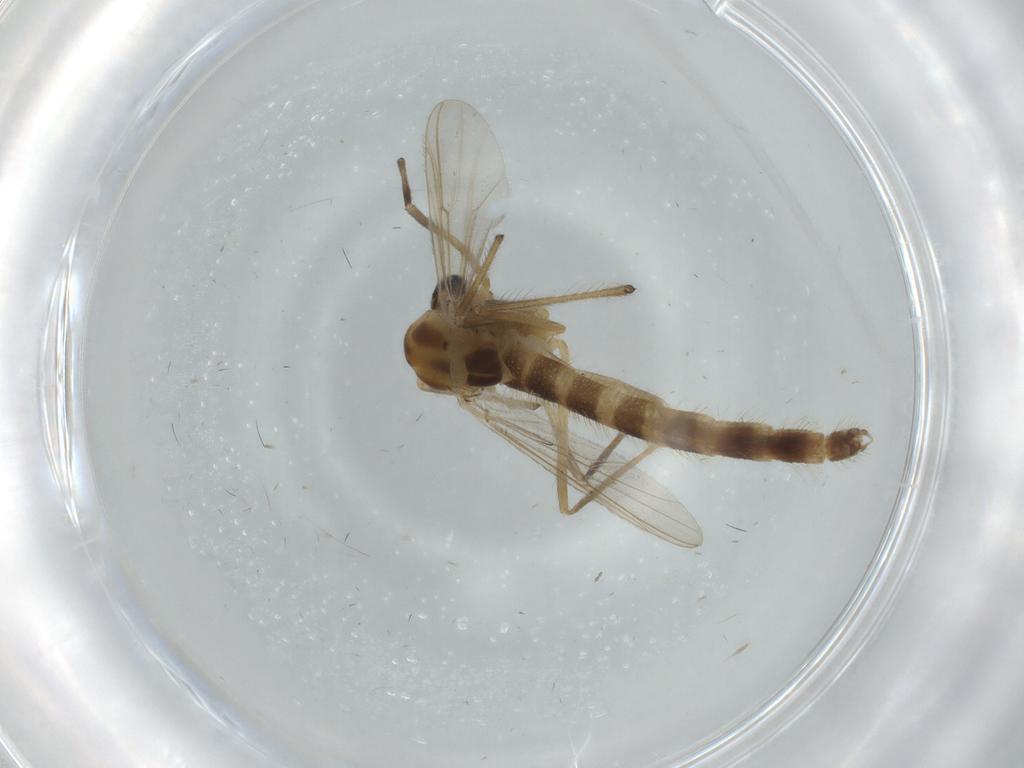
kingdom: Animalia
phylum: Arthropoda
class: Insecta
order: Diptera
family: Chironomidae
